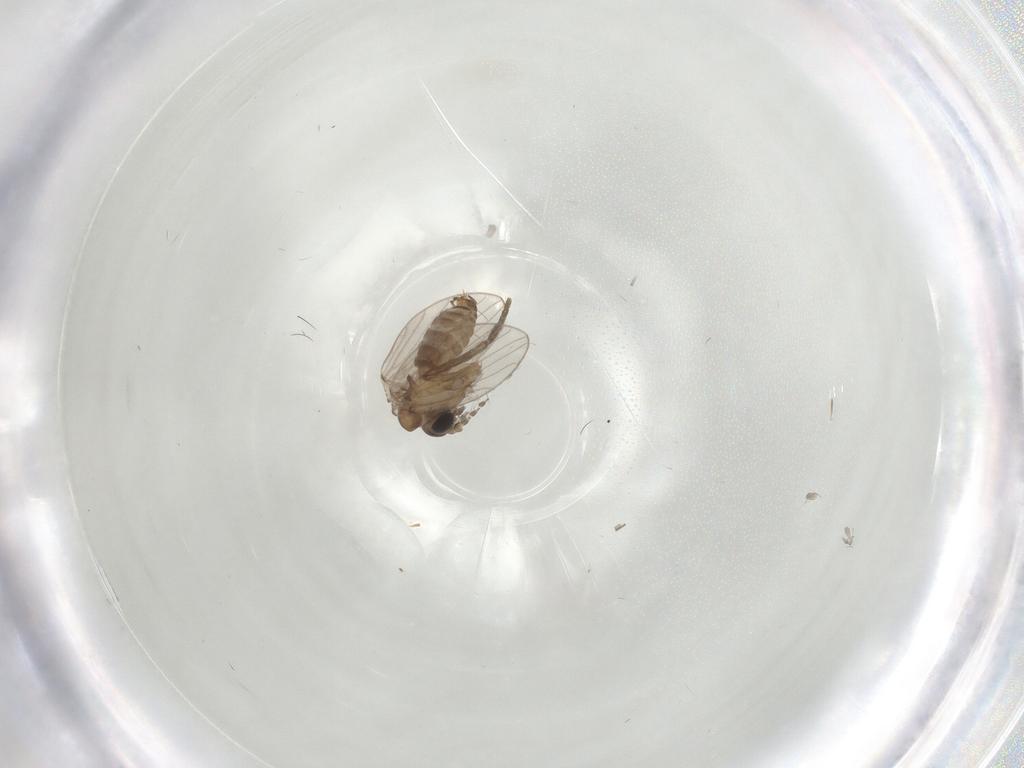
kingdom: Animalia
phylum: Arthropoda
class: Insecta
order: Diptera
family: Psychodidae
